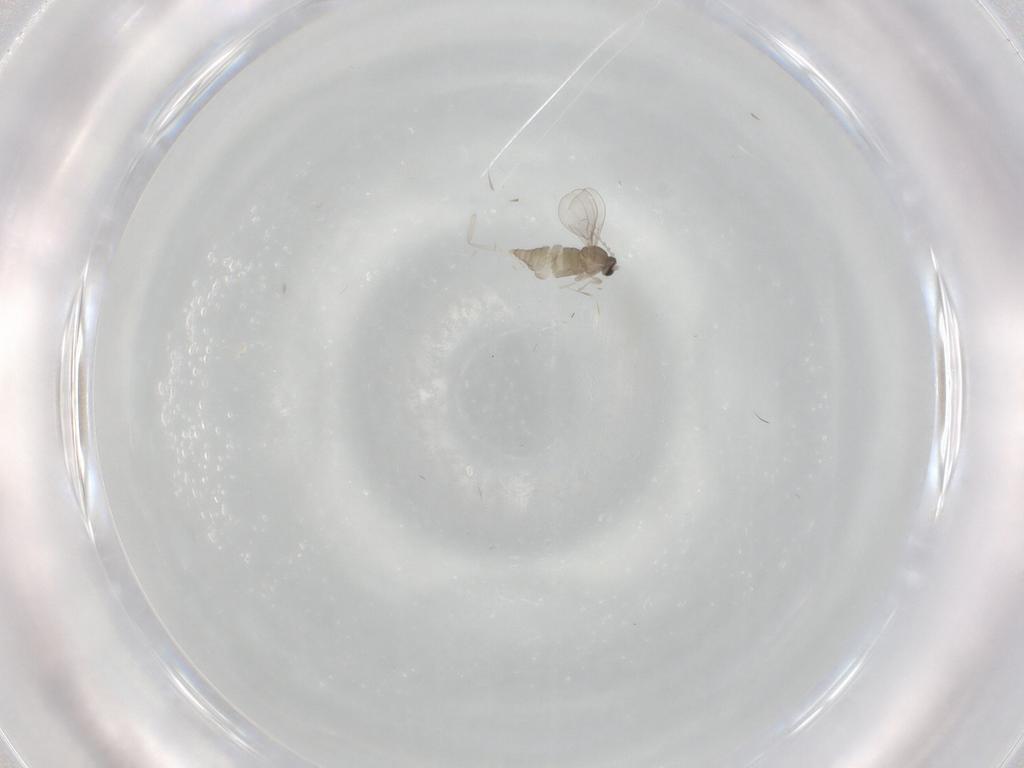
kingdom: Animalia
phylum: Arthropoda
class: Insecta
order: Diptera
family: Cecidomyiidae
